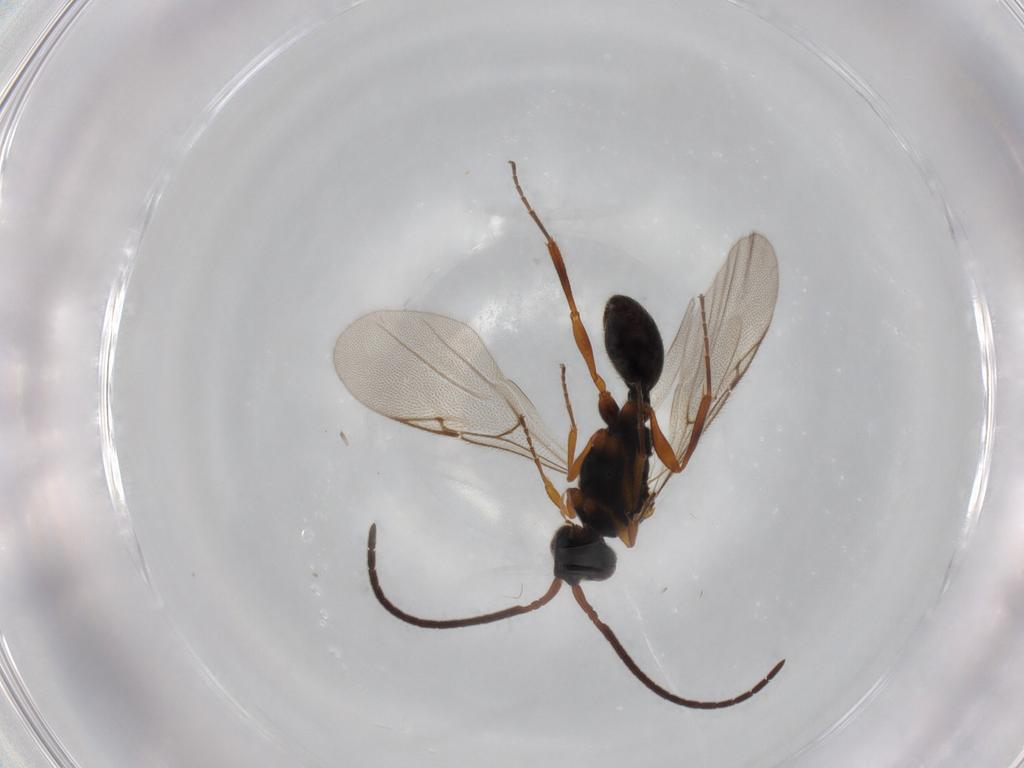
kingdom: Animalia
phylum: Arthropoda
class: Insecta
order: Hymenoptera
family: Diapriidae
